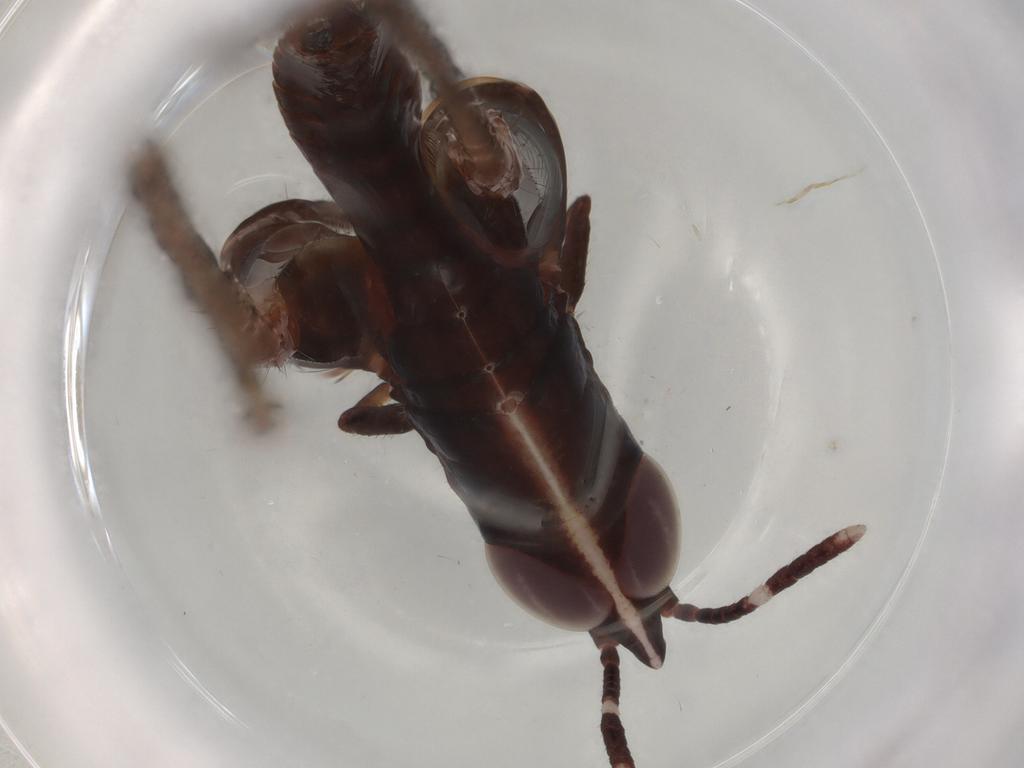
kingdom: Animalia
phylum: Arthropoda
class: Insecta
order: Orthoptera
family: Acrididae
